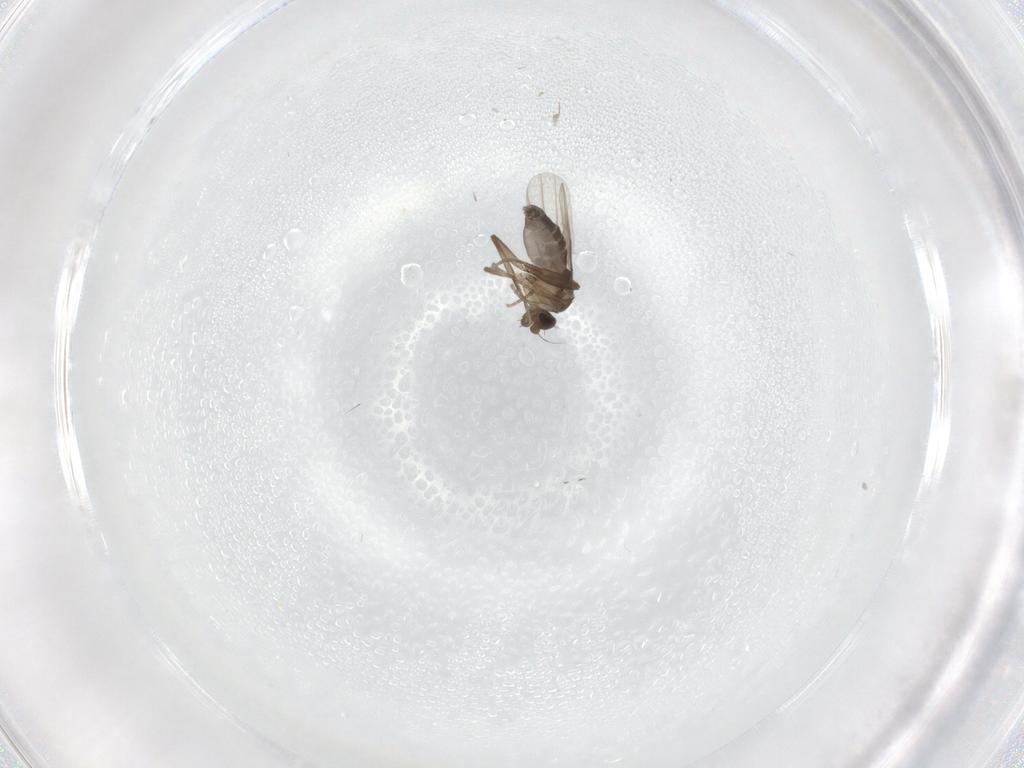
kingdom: Animalia
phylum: Arthropoda
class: Insecta
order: Diptera
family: Phoridae
